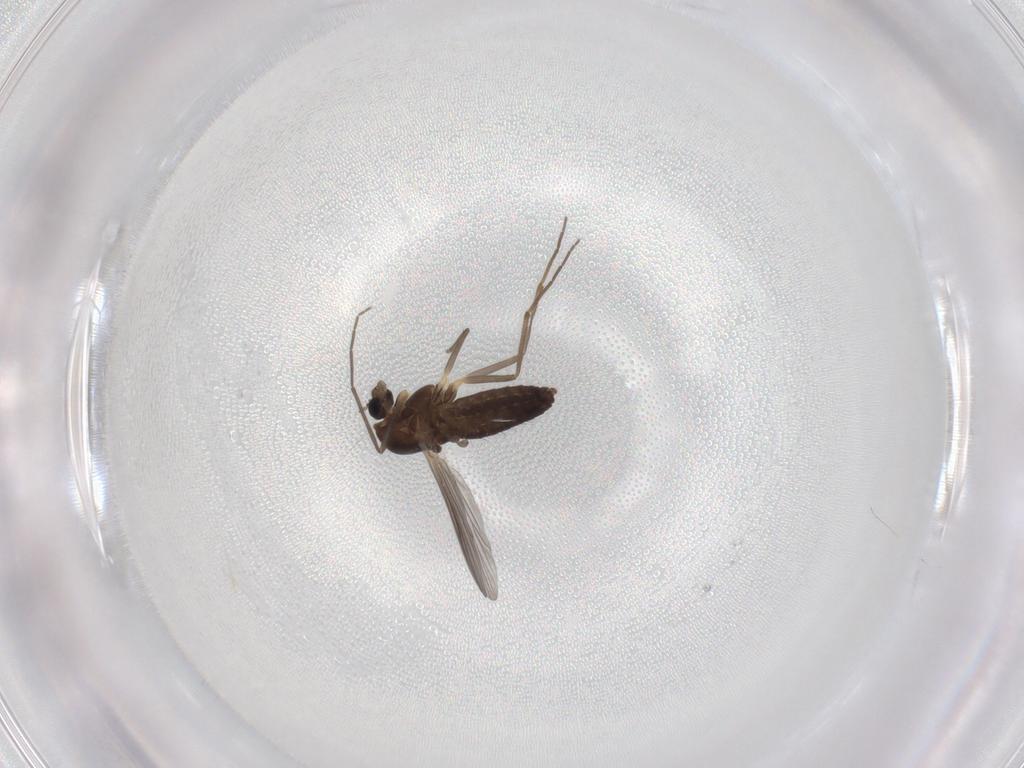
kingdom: Animalia
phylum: Arthropoda
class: Insecta
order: Diptera
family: Chironomidae
